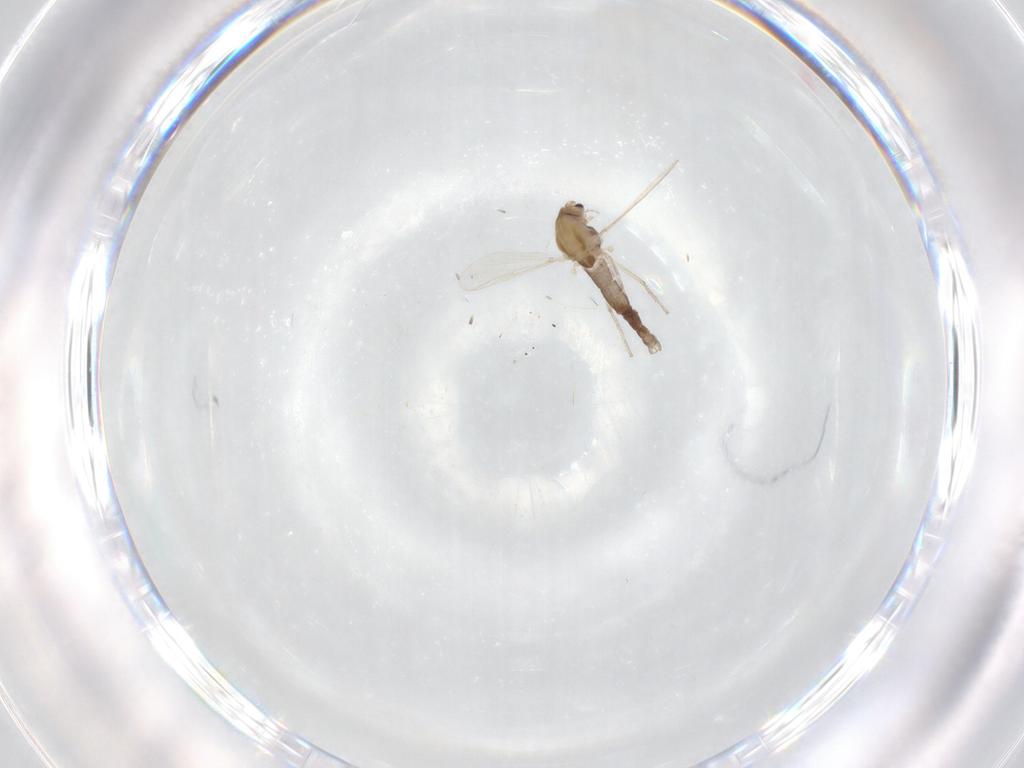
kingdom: Animalia
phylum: Arthropoda
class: Insecta
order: Diptera
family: Chironomidae
